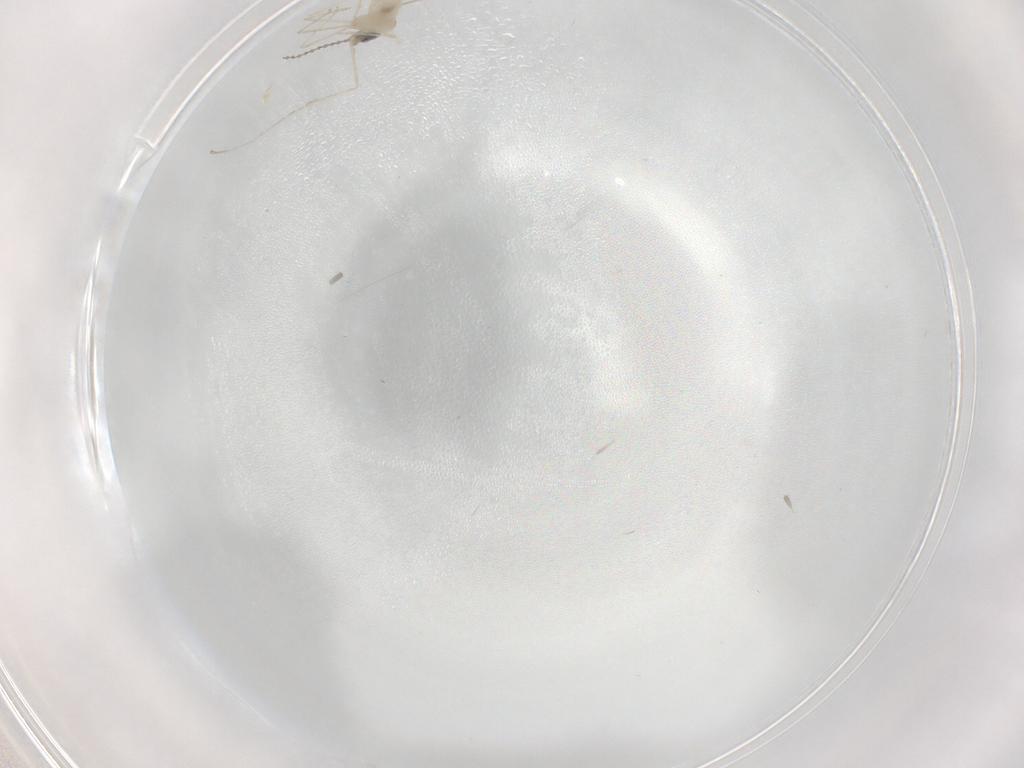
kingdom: Animalia
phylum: Arthropoda
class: Insecta
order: Diptera
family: Cecidomyiidae
